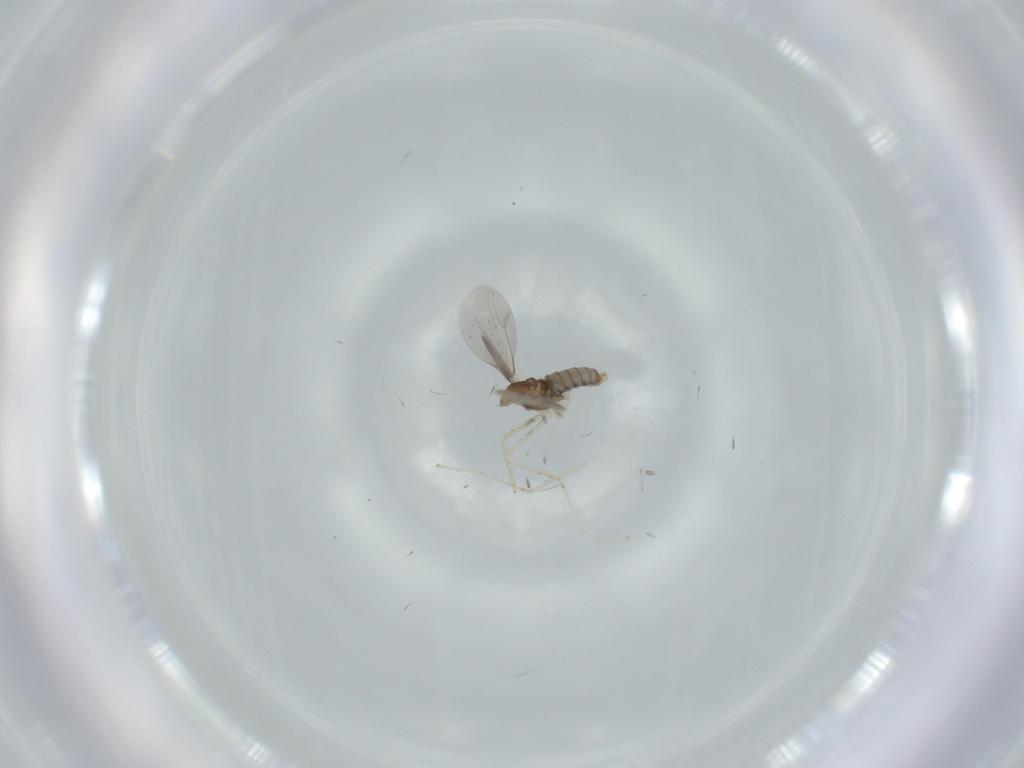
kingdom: Animalia
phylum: Arthropoda
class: Insecta
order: Diptera
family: Cecidomyiidae
